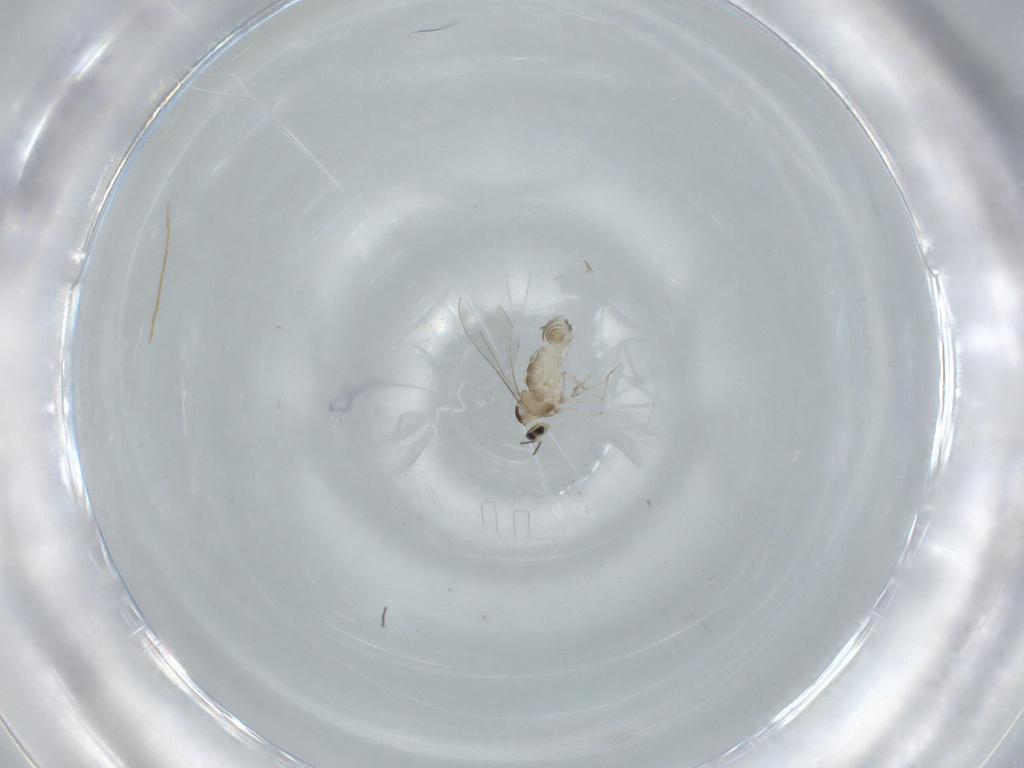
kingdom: Animalia
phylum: Arthropoda
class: Insecta
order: Diptera
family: Cecidomyiidae
